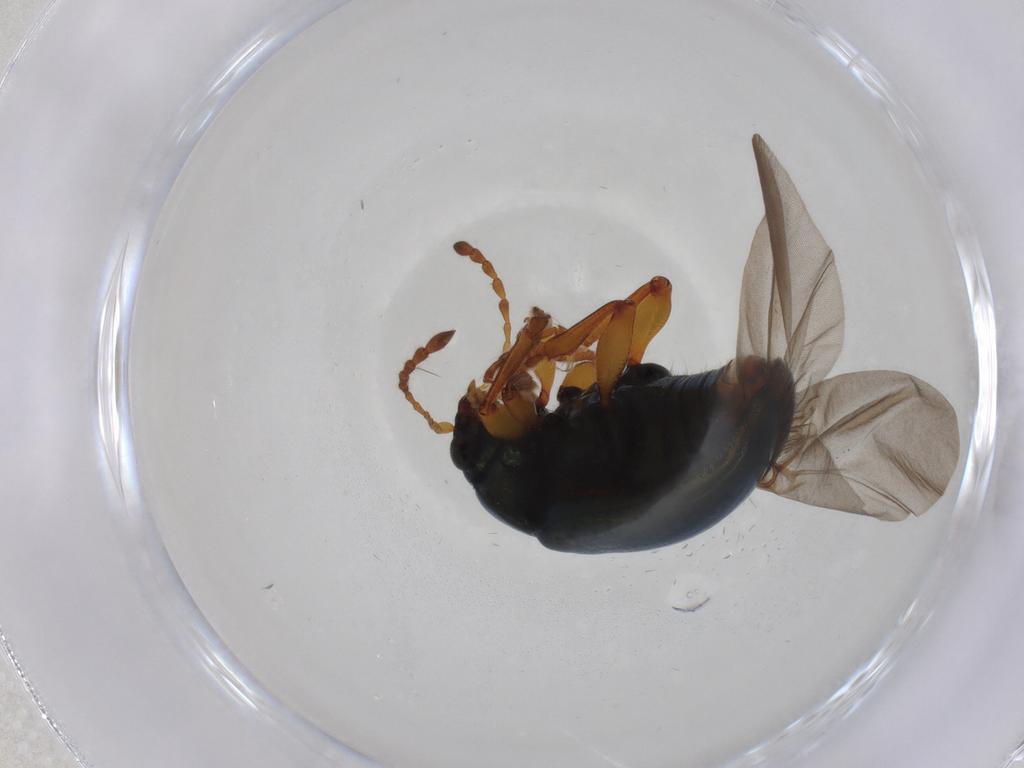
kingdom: Animalia
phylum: Arthropoda
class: Insecta
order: Coleoptera
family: Chrysomelidae
